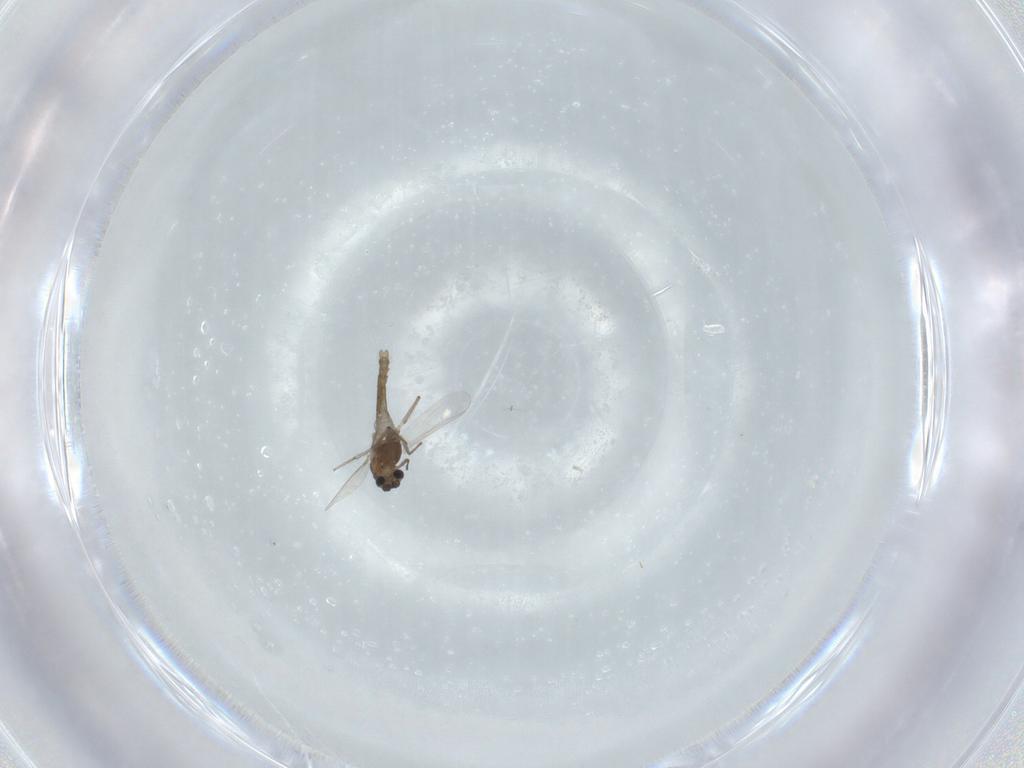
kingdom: Animalia
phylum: Arthropoda
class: Insecta
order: Diptera
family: Chironomidae
